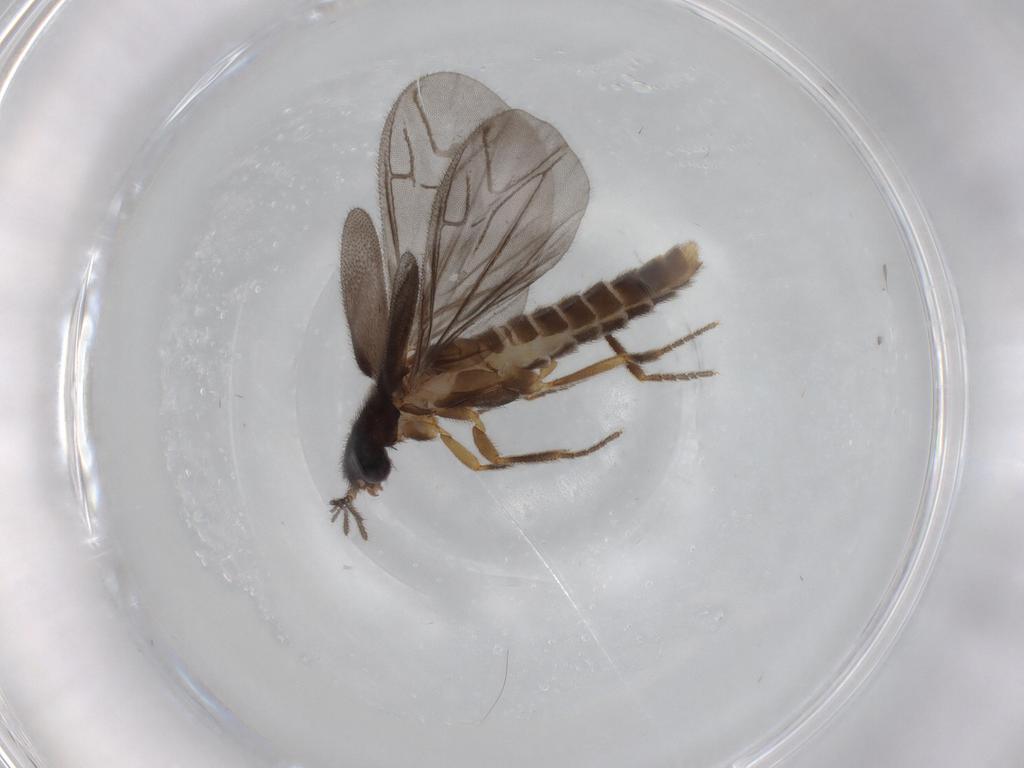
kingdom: Animalia
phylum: Arthropoda
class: Insecta
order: Coleoptera
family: Phengodidae
